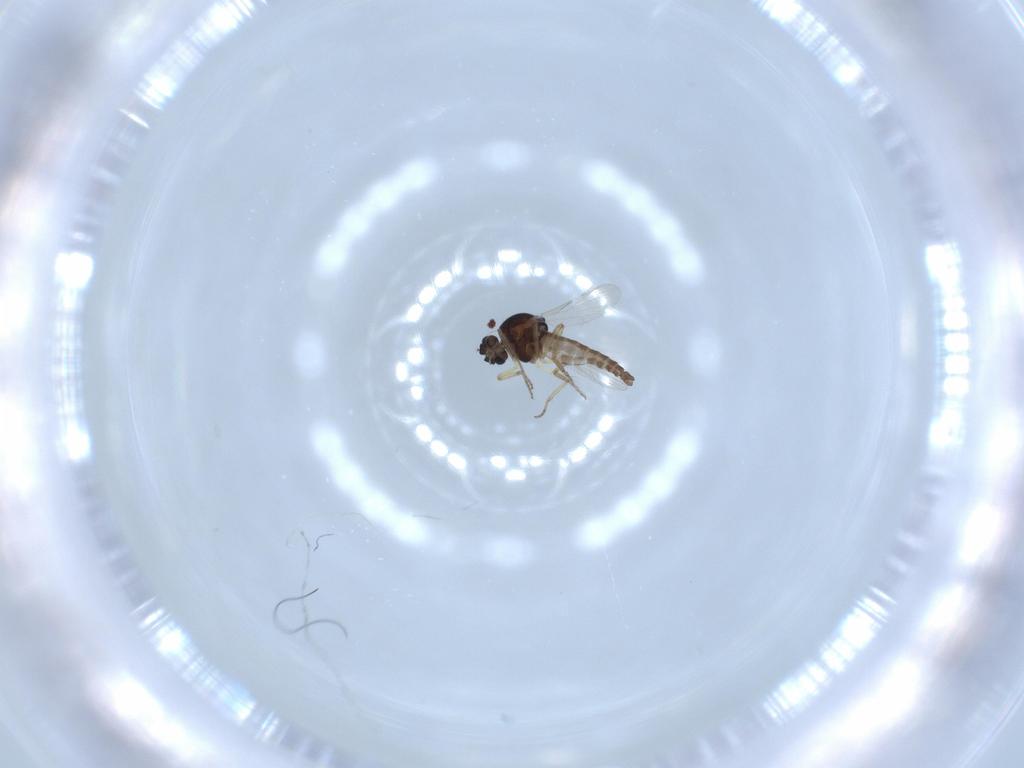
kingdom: Animalia
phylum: Arthropoda
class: Insecta
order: Diptera
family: Ceratopogonidae
